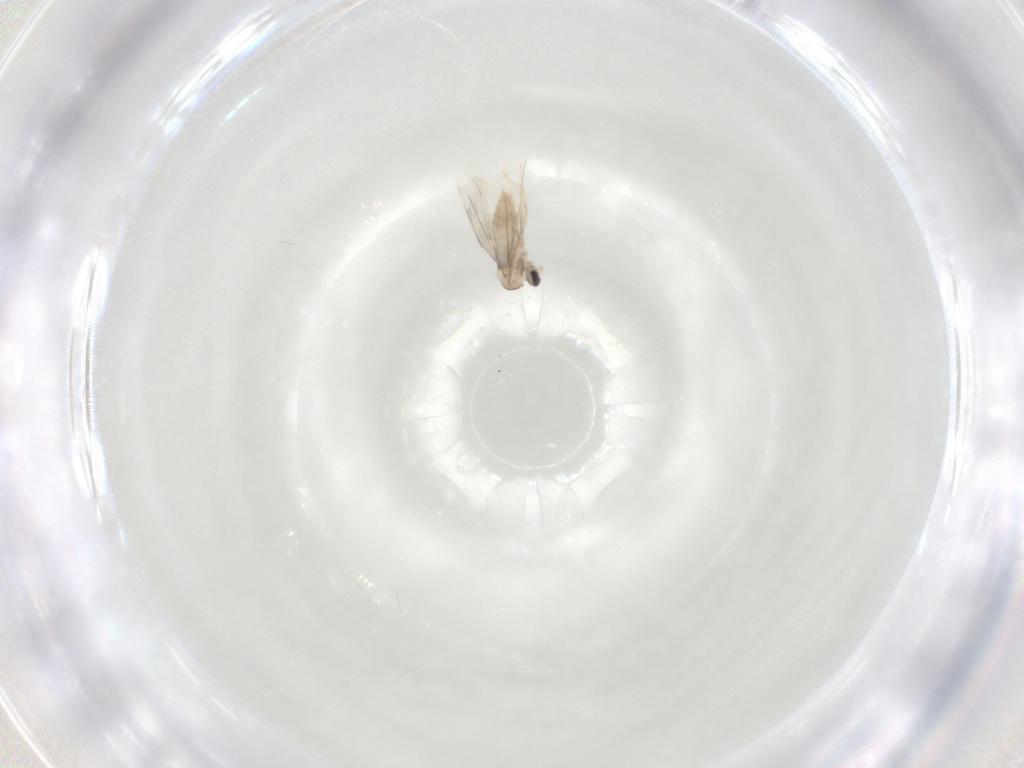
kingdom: Animalia
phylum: Arthropoda
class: Insecta
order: Diptera
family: Cecidomyiidae
